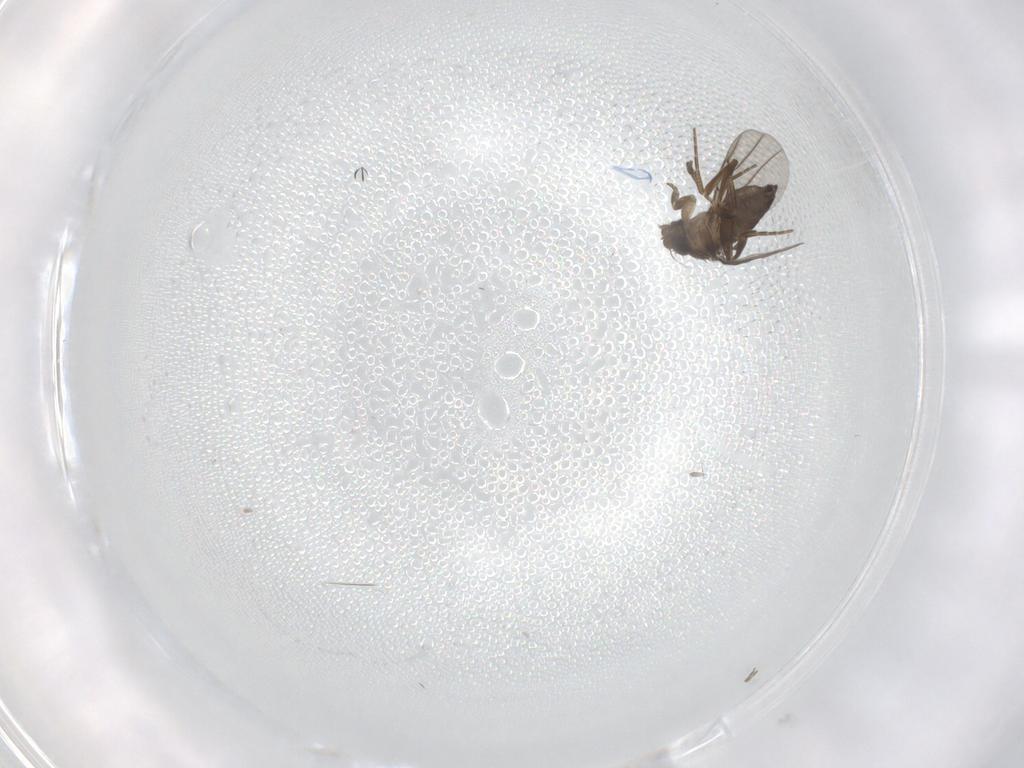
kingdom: Animalia
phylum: Arthropoda
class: Insecta
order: Diptera
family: Phoridae
